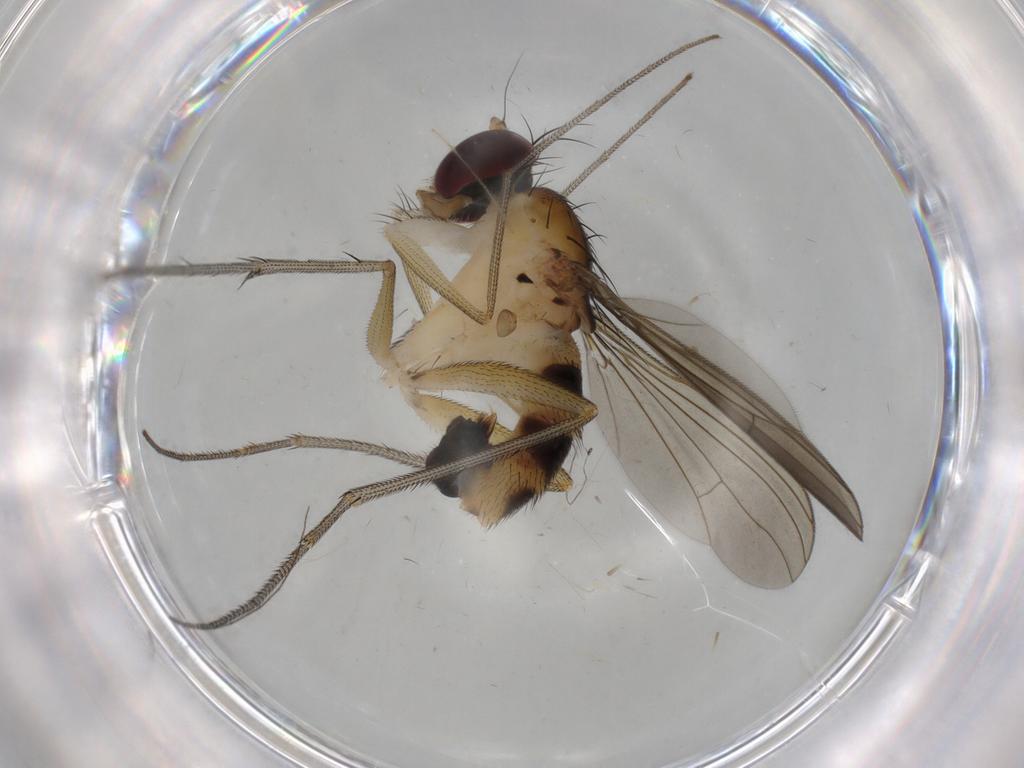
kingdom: Animalia
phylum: Arthropoda
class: Insecta
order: Diptera
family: Chironomidae
